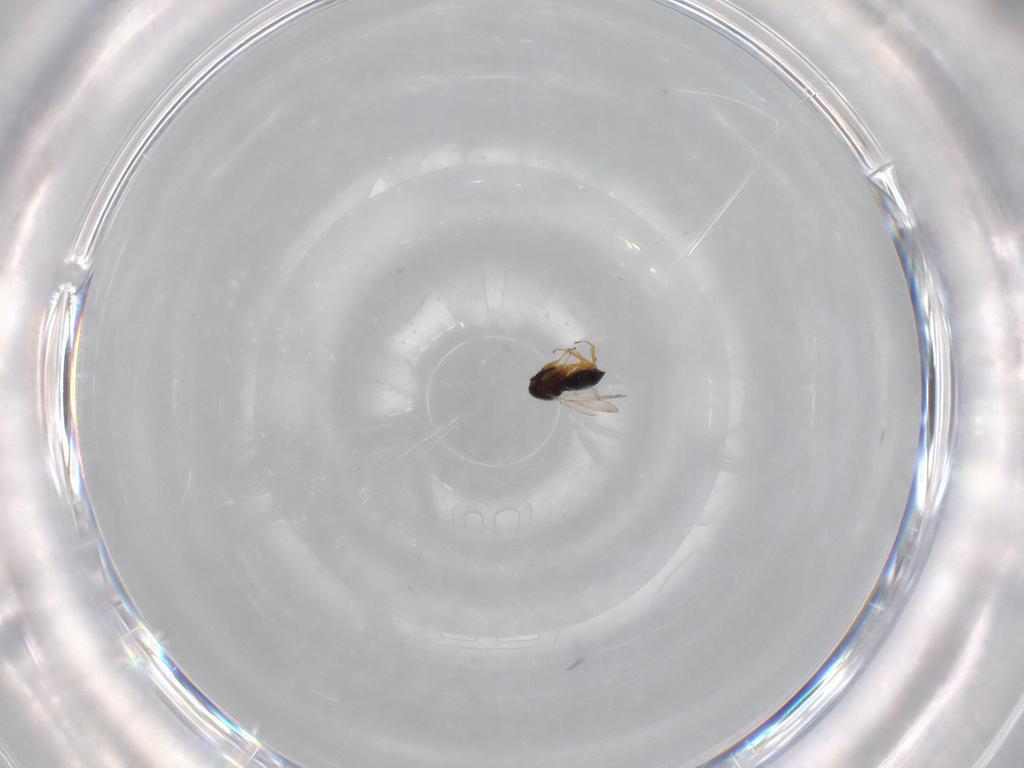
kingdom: Animalia
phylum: Arthropoda
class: Insecta
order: Hymenoptera
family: Scelionidae
